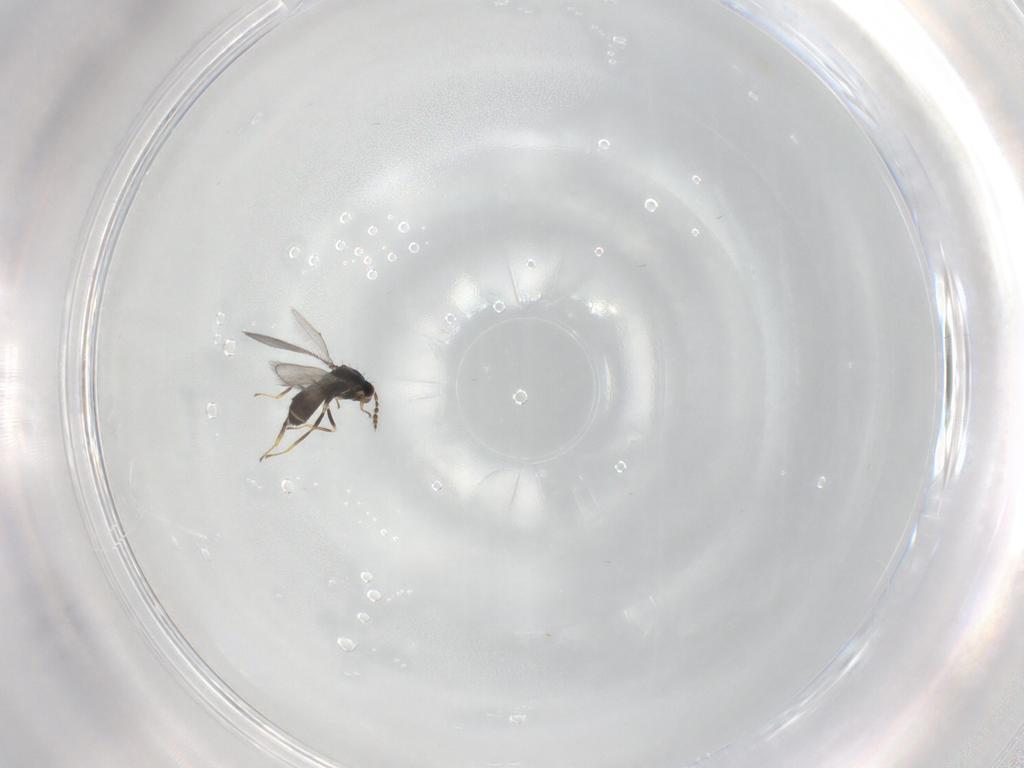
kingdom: Animalia
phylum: Arthropoda
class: Insecta
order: Hymenoptera
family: Eulophidae
